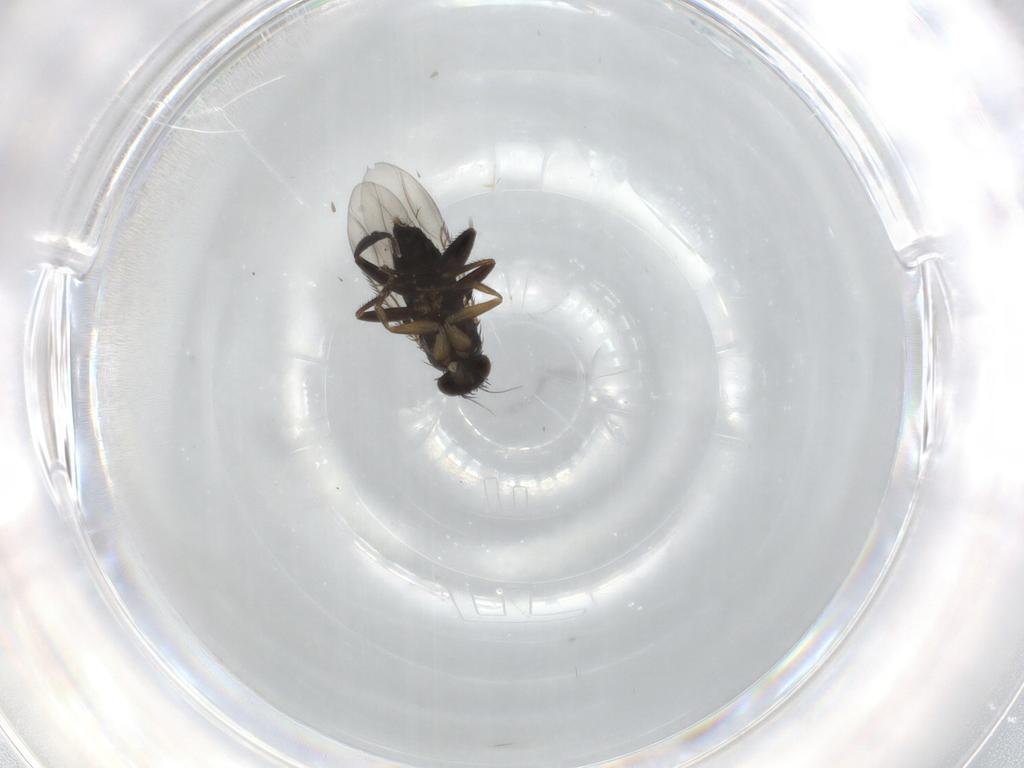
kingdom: Animalia
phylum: Arthropoda
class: Insecta
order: Diptera
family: Phoridae
